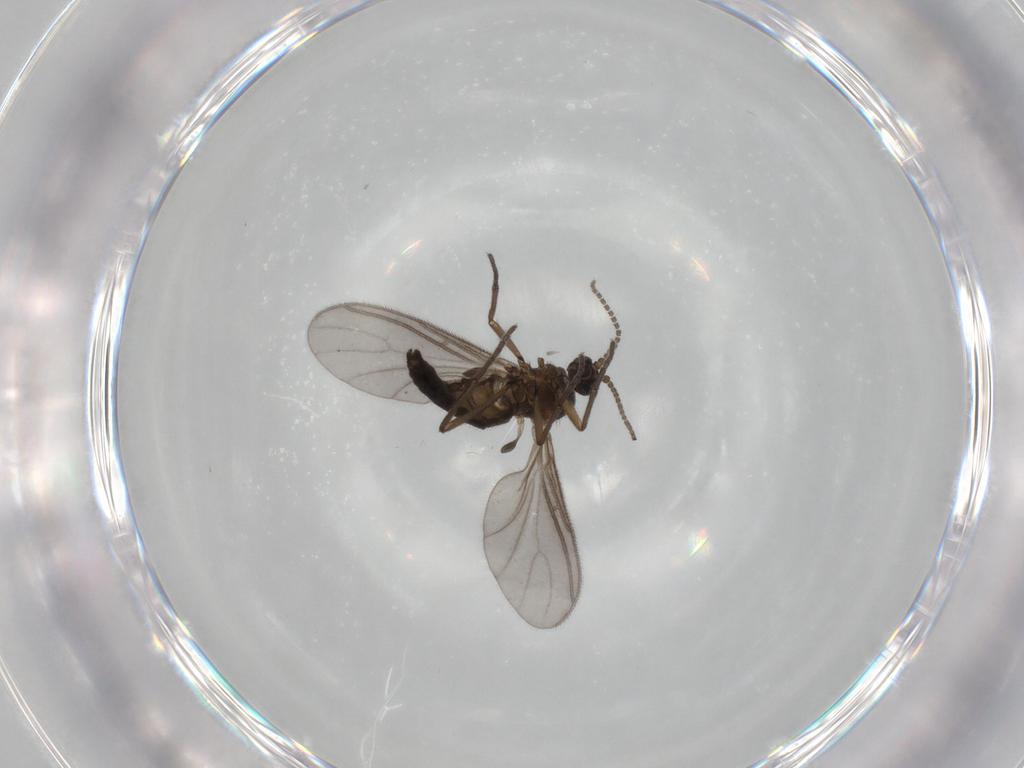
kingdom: Animalia
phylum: Arthropoda
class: Insecta
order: Diptera
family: Sciaridae
